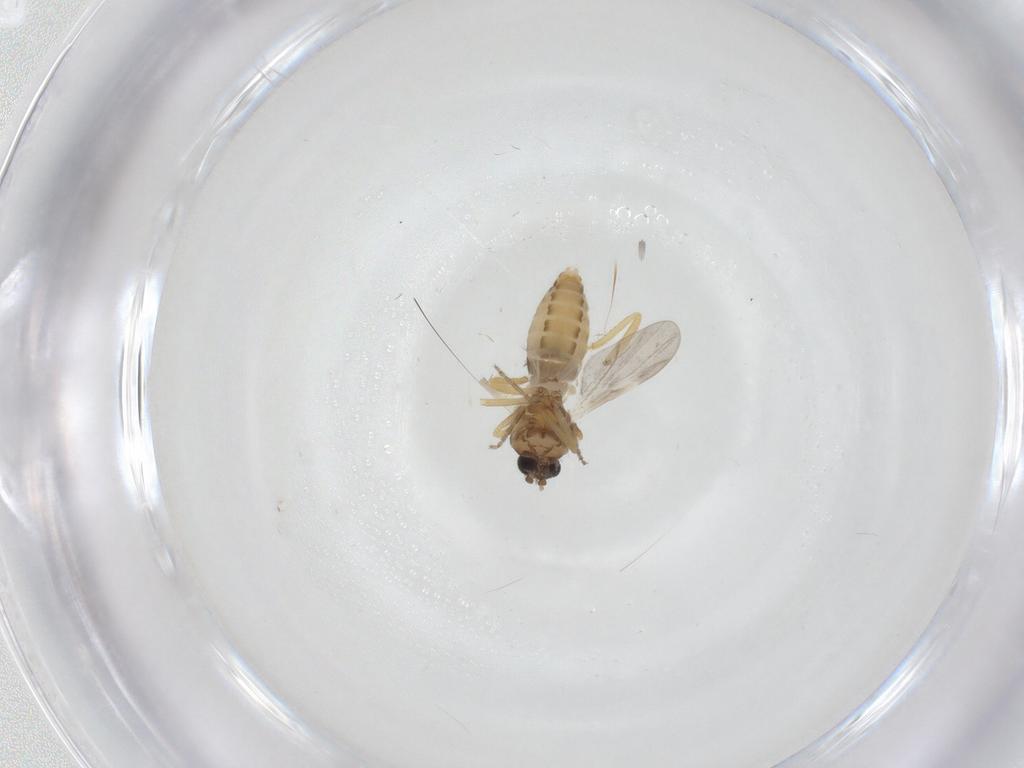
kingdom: Animalia
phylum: Arthropoda
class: Insecta
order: Diptera
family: Ceratopogonidae
